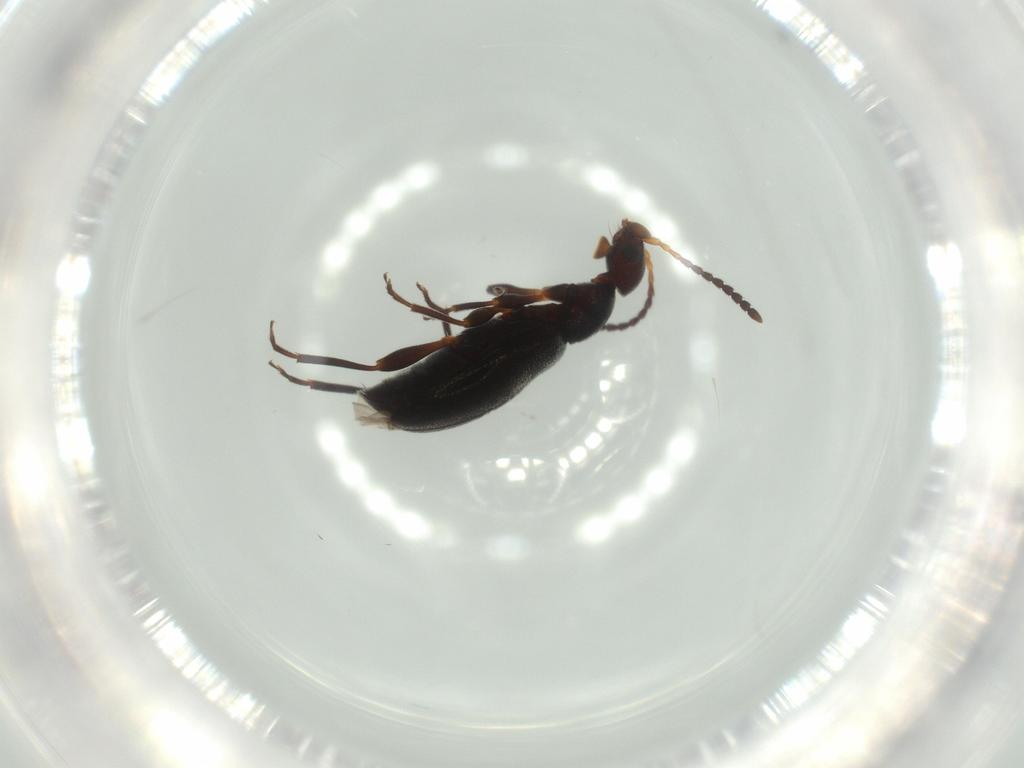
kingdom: Animalia
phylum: Arthropoda
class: Insecta
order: Coleoptera
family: Anthicidae
